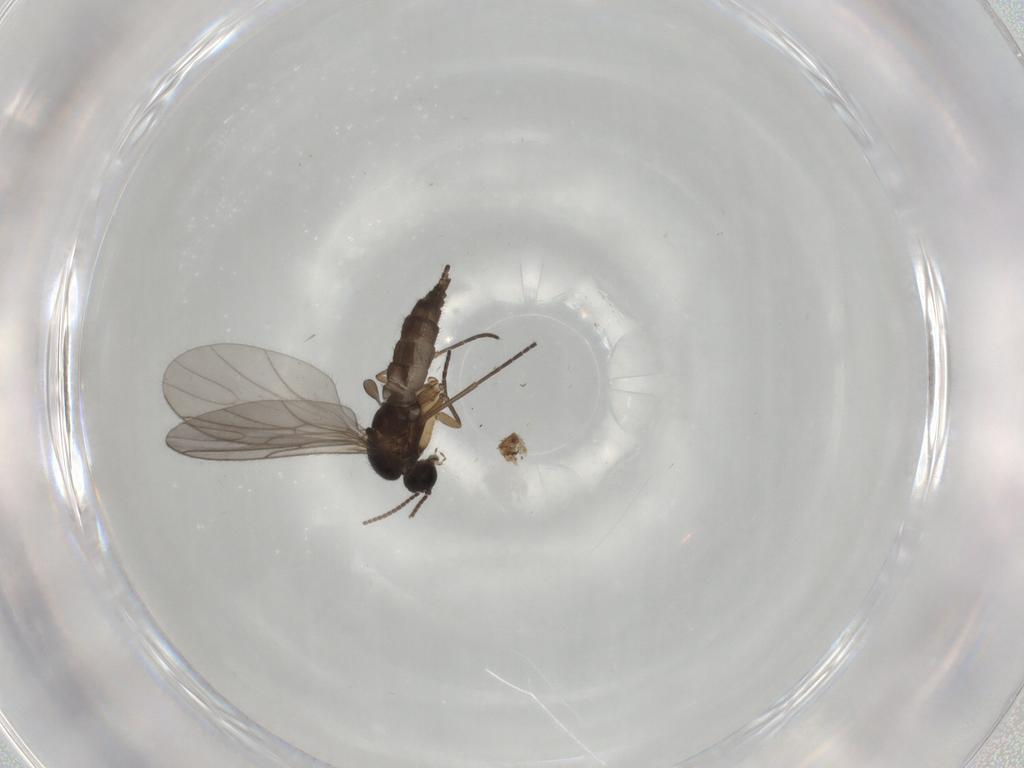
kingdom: Animalia
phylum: Arthropoda
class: Insecta
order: Diptera
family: Sciaridae
